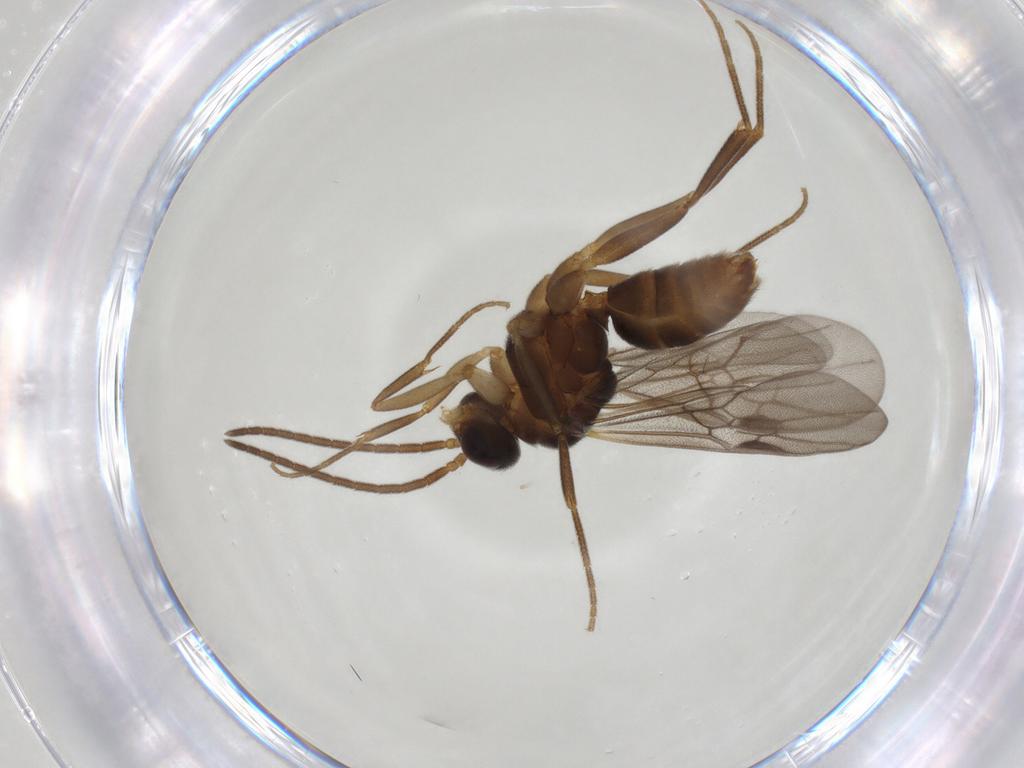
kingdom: Animalia
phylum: Arthropoda
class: Insecta
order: Hymenoptera
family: Formicidae
